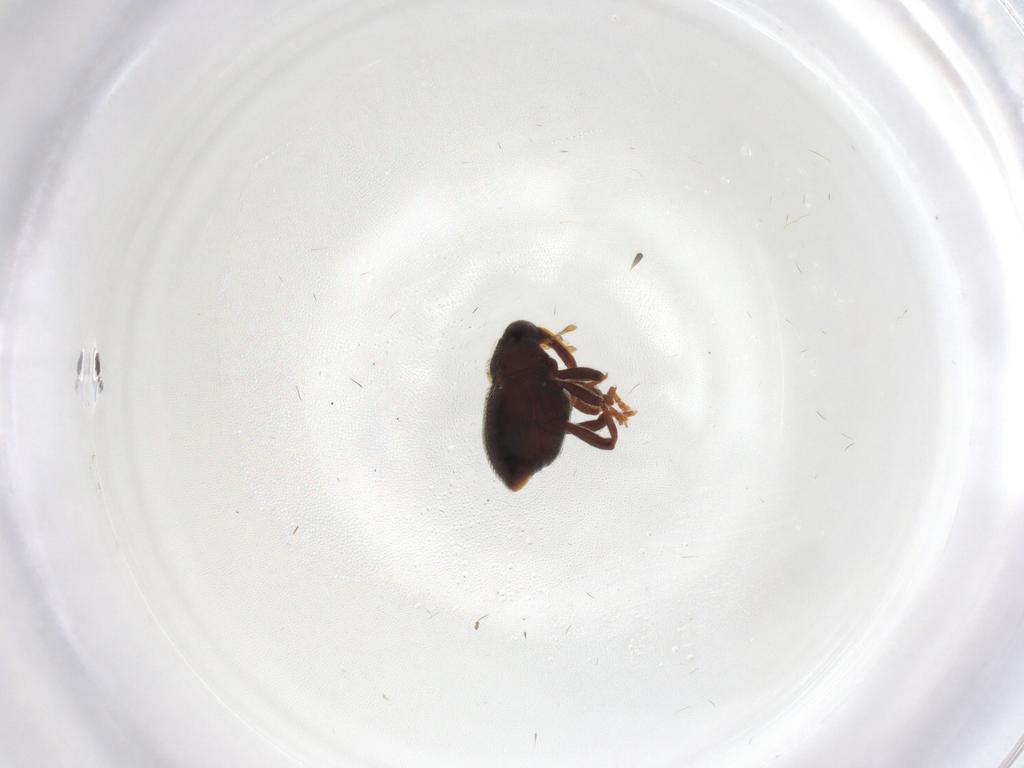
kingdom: Animalia
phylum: Arthropoda
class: Insecta
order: Coleoptera
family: Curculionidae
